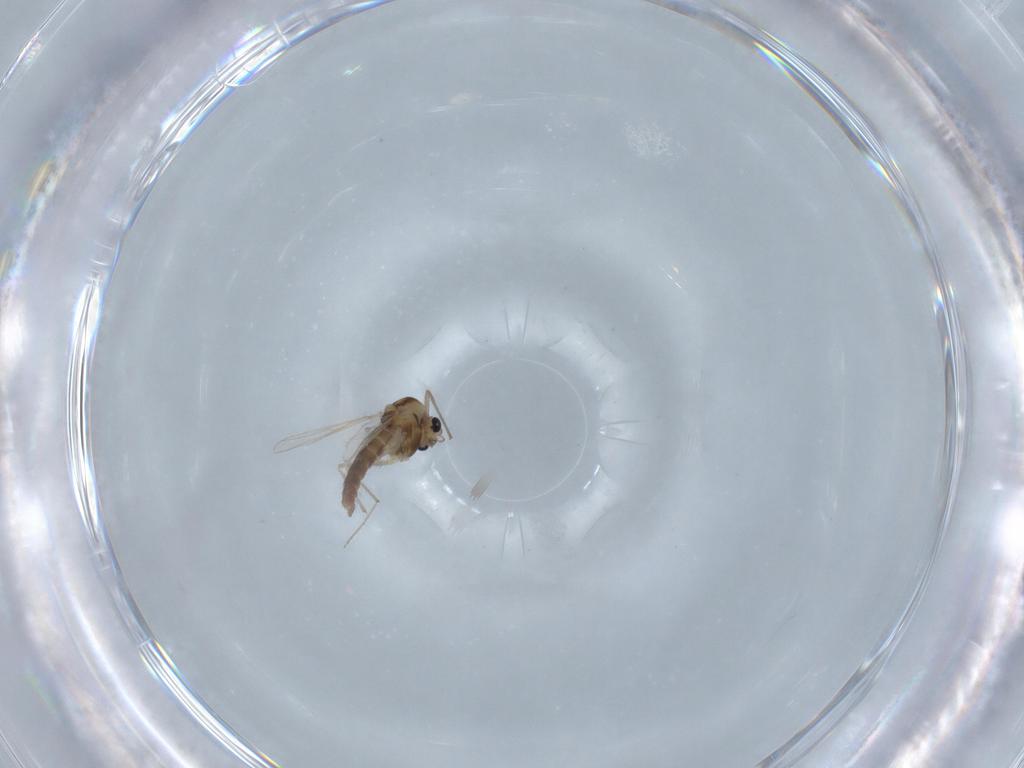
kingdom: Animalia
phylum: Arthropoda
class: Insecta
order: Diptera
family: Chironomidae
